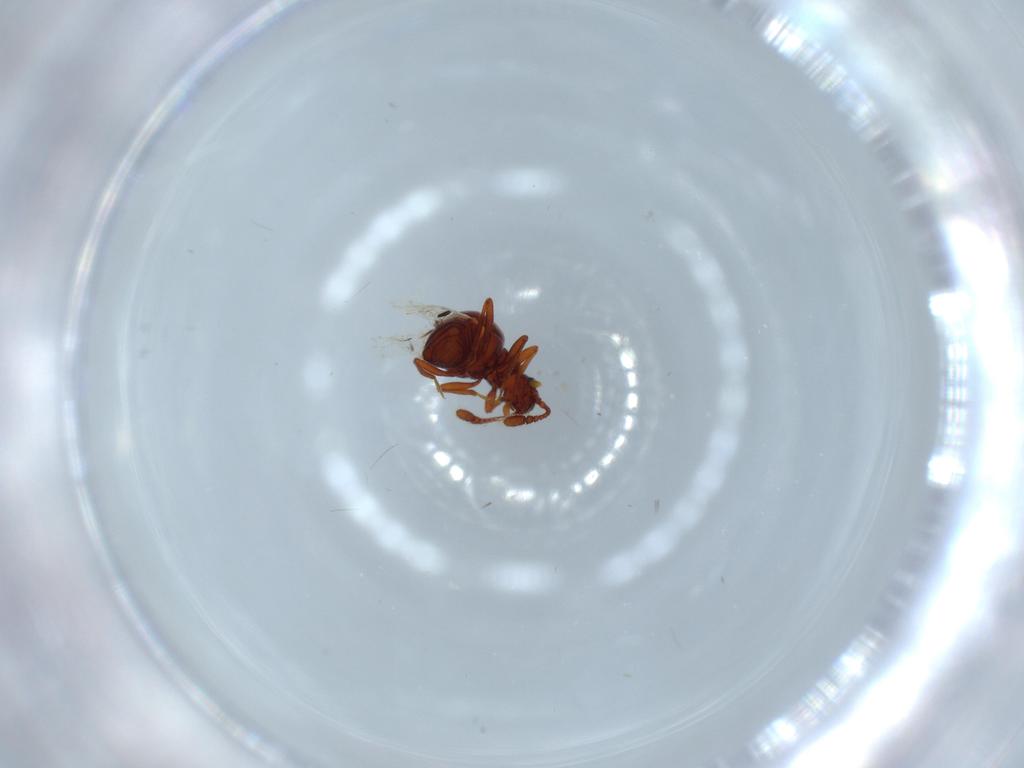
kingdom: Animalia
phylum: Arthropoda
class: Insecta
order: Coleoptera
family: Staphylinidae
